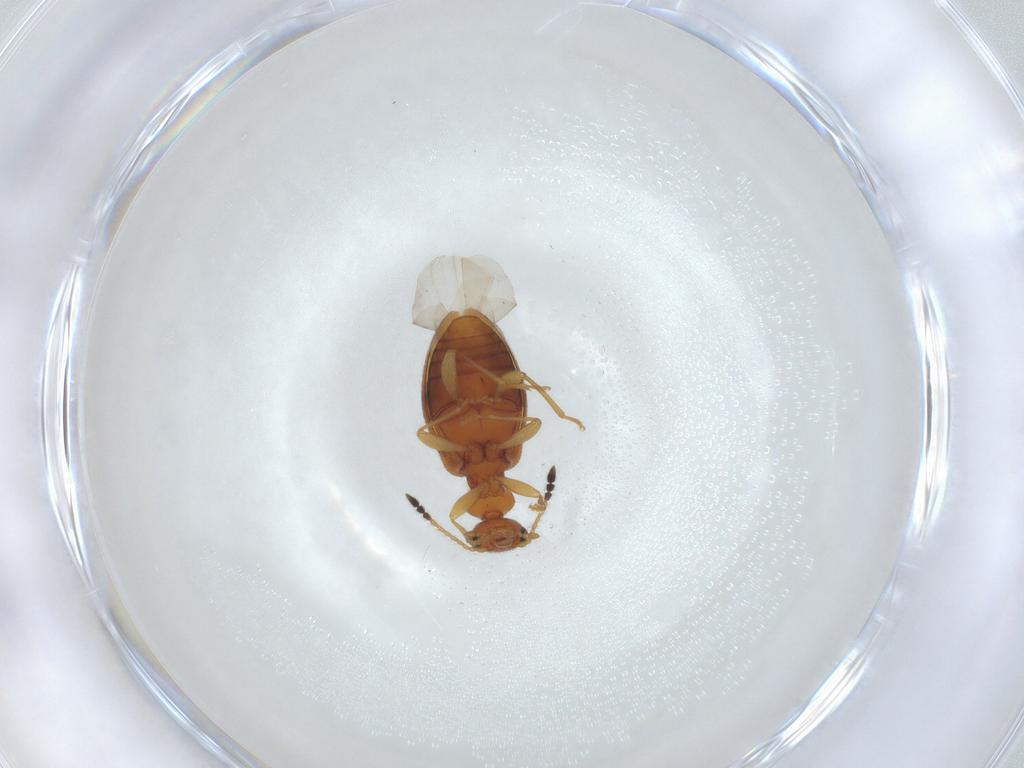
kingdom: Animalia
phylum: Arthropoda
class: Insecta
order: Coleoptera
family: Anthicidae
